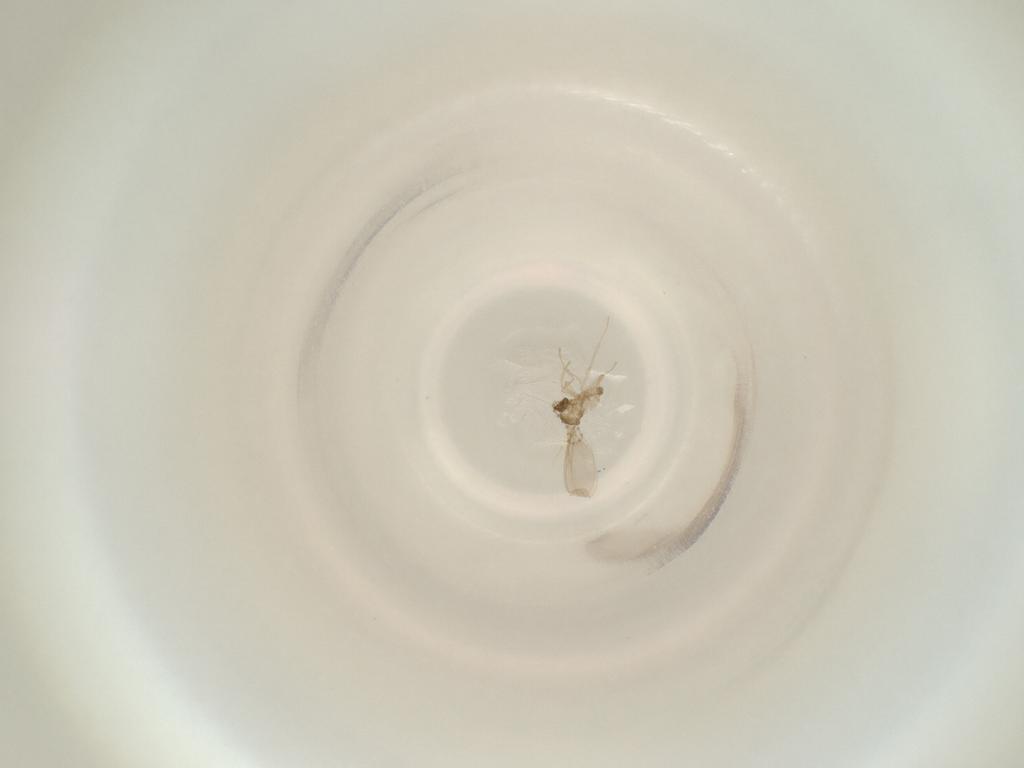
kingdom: Animalia
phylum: Arthropoda
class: Insecta
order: Diptera
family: Cecidomyiidae
